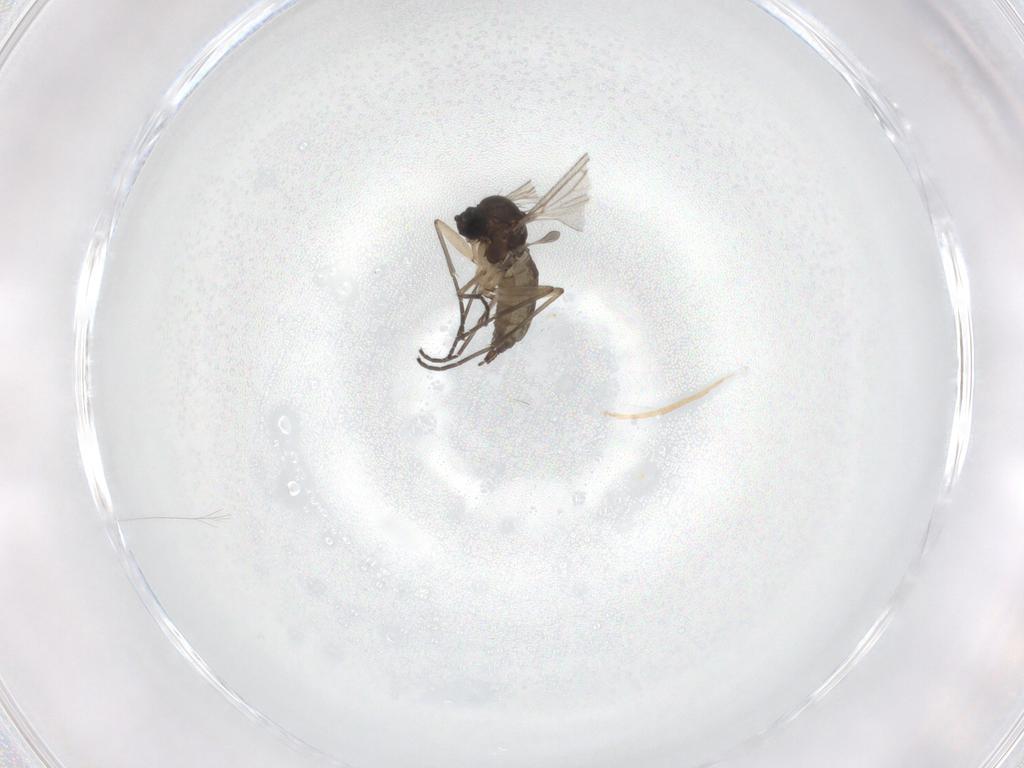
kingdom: Animalia
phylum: Arthropoda
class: Insecta
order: Diptera
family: Sciaridae
